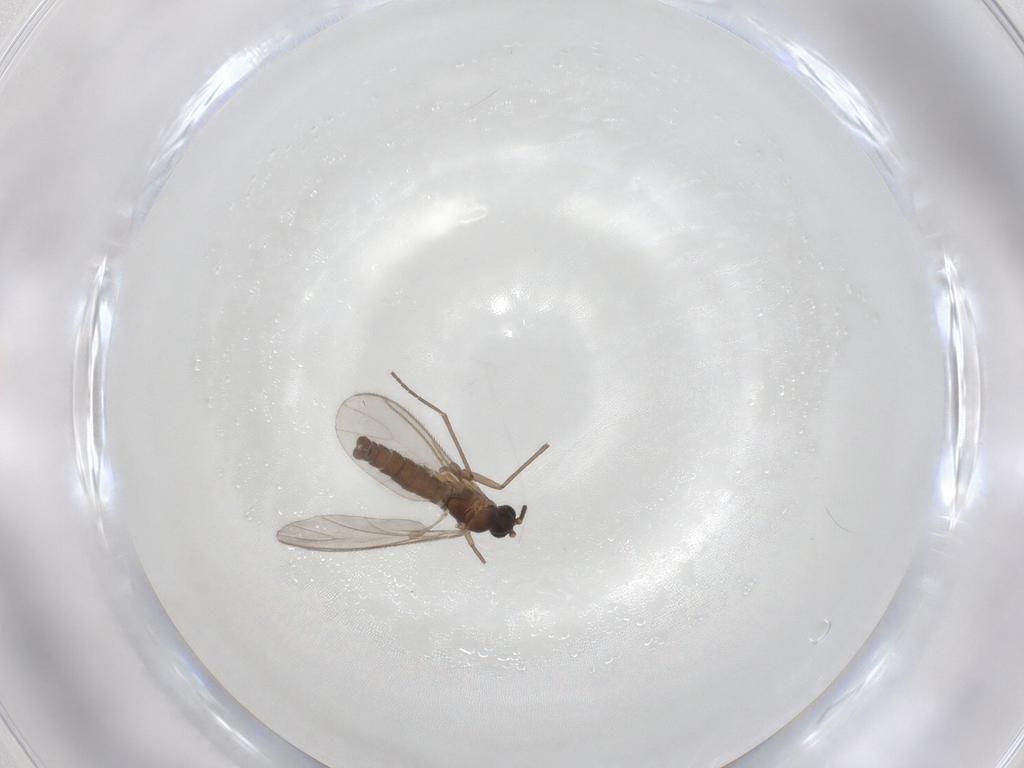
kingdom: Animalia
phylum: Arthropoda
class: Insecta
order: Diptera
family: Sciaridae
